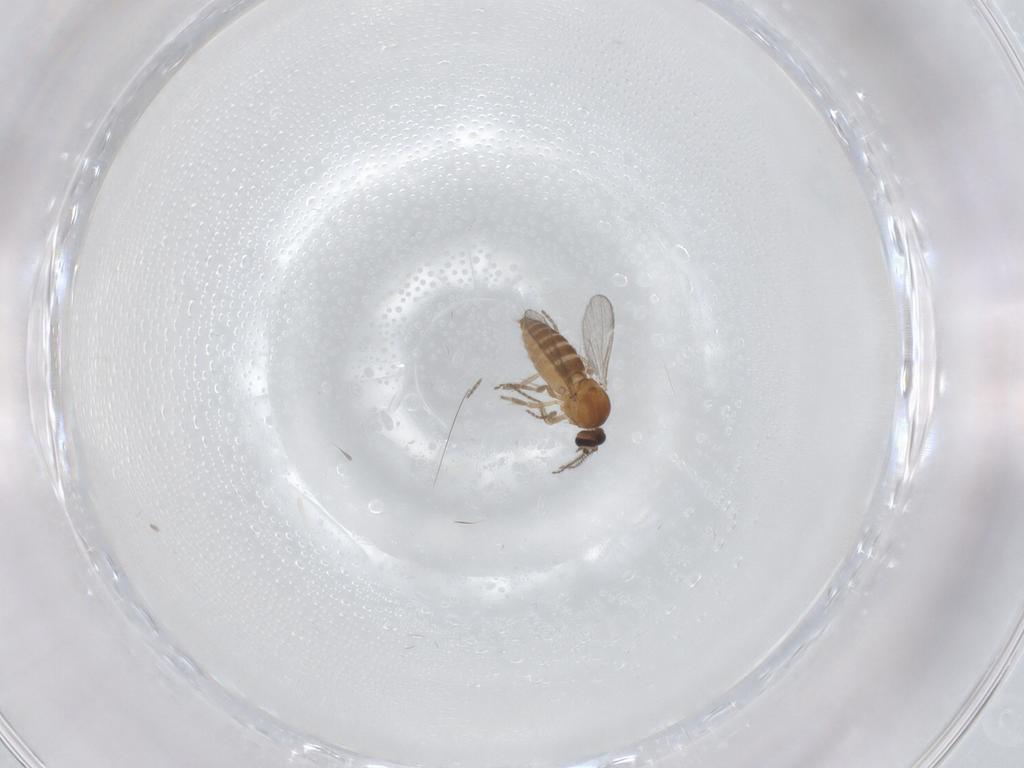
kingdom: Animalia
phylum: Arthropoda
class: Insecta
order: Diptera
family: Ceratopogonidae
